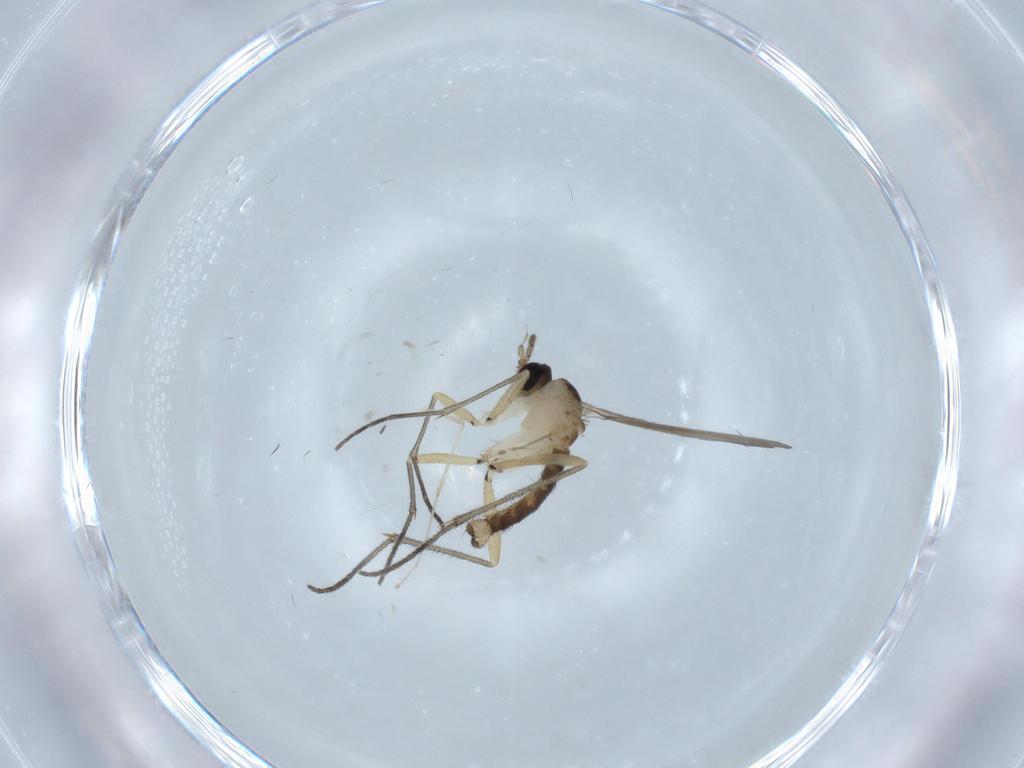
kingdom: Animalia
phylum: Arthropoda
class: Insecta
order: Diptera
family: Sciaridae
